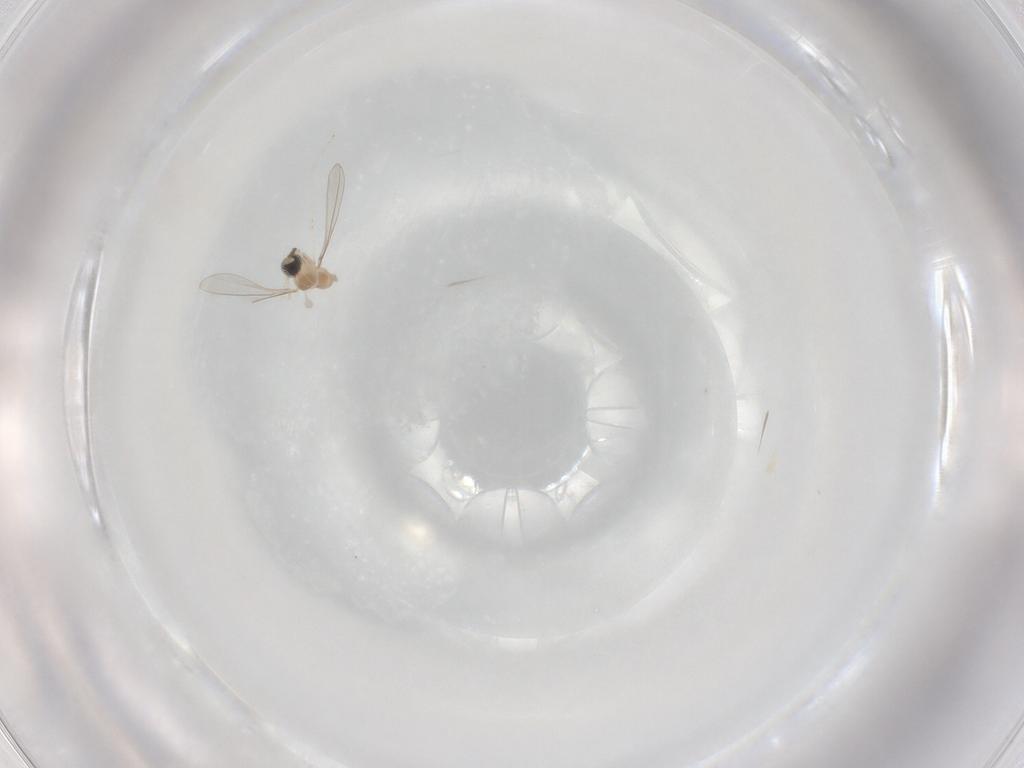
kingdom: Animalia
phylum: Arthropoda
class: Insecta
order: Diptera
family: Cecidomyiidae
